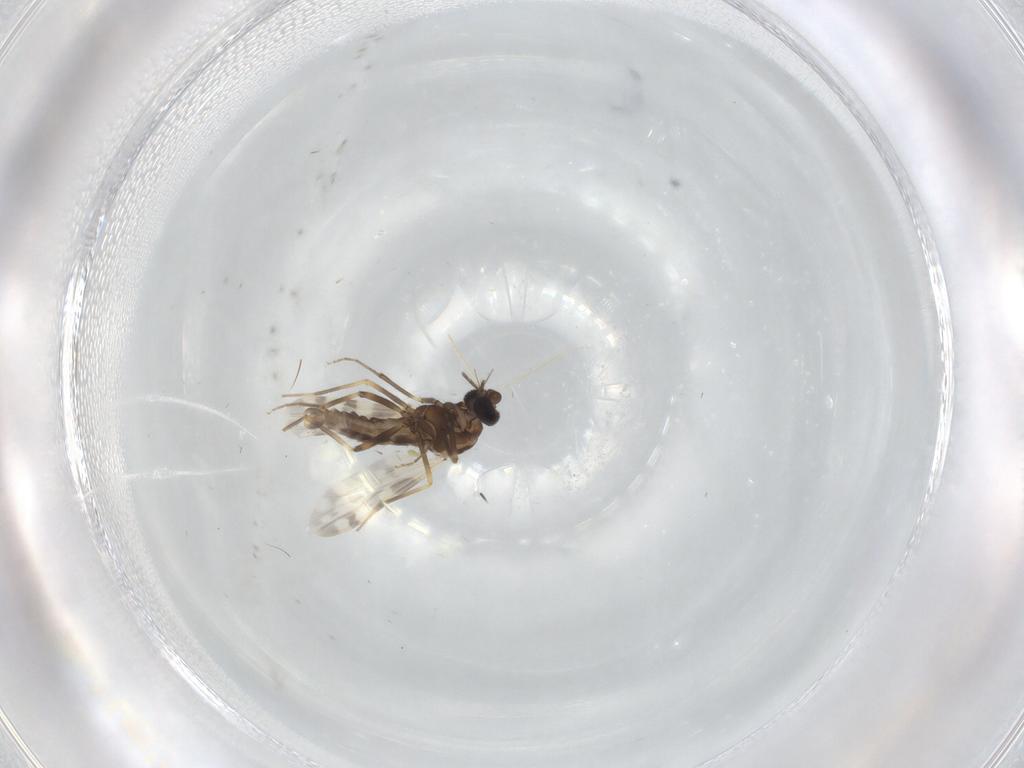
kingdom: Animalia
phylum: Arthropoda
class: Insecta
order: Diptera
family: Ceratopogonidae
